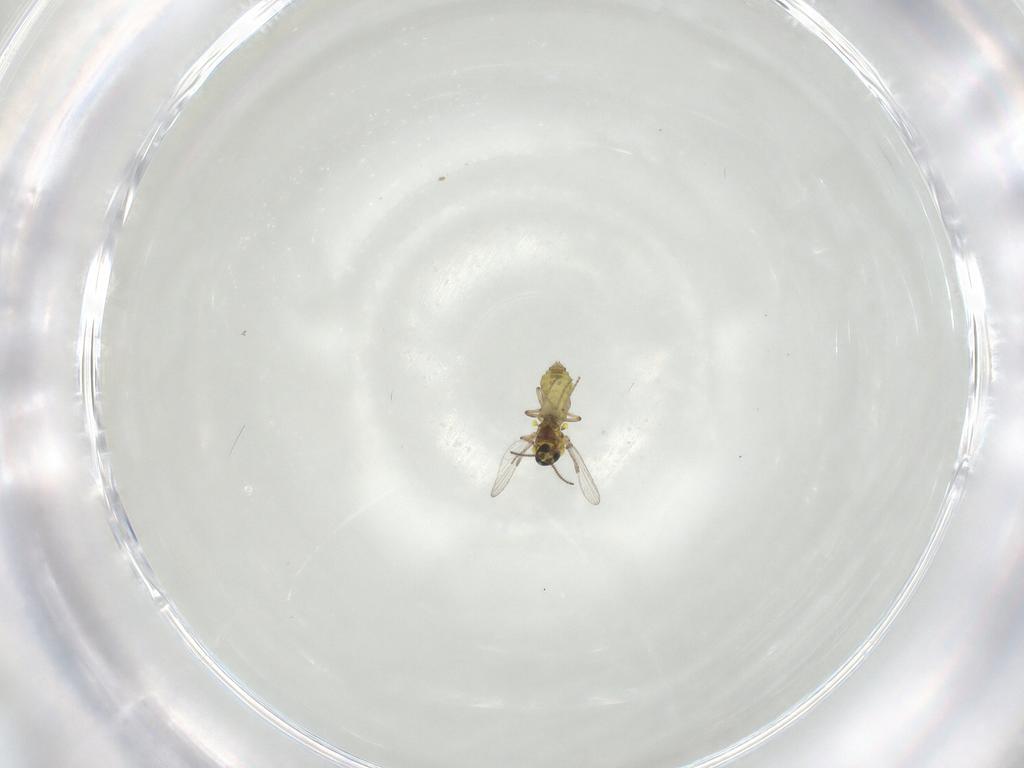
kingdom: Animalia
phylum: Arthropoda
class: Insecta
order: Diptera
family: Ceratopogonidae
